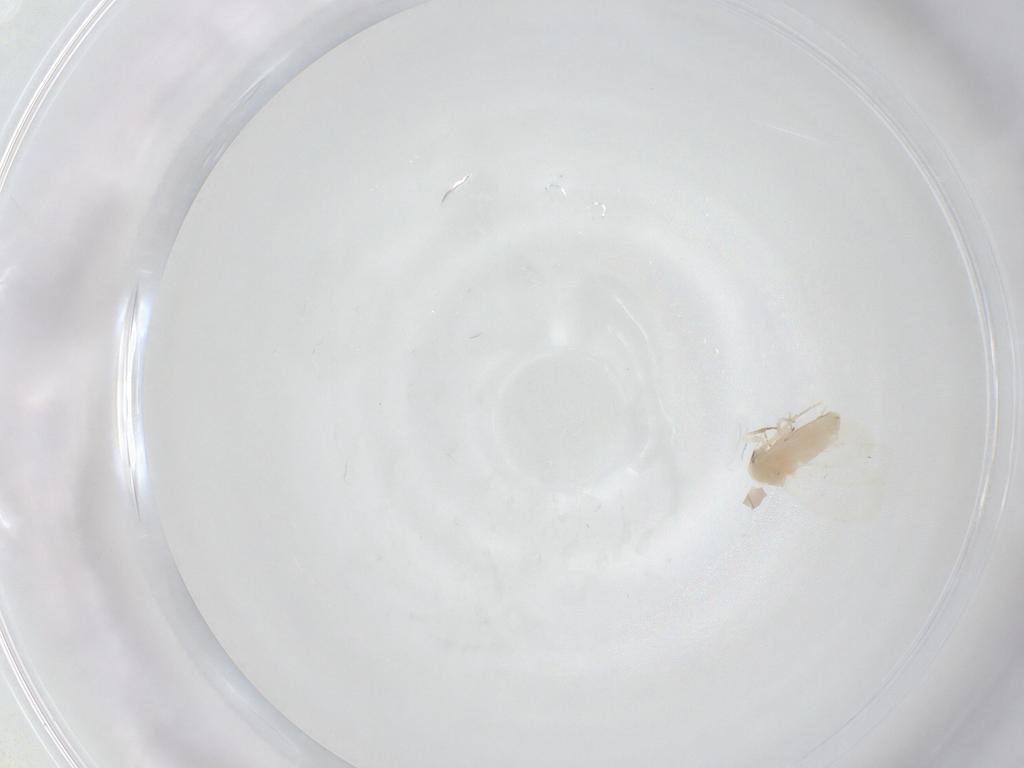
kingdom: Animalia
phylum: Arthropoda
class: Insecta
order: Hemiptera
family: Aleyrodidae
